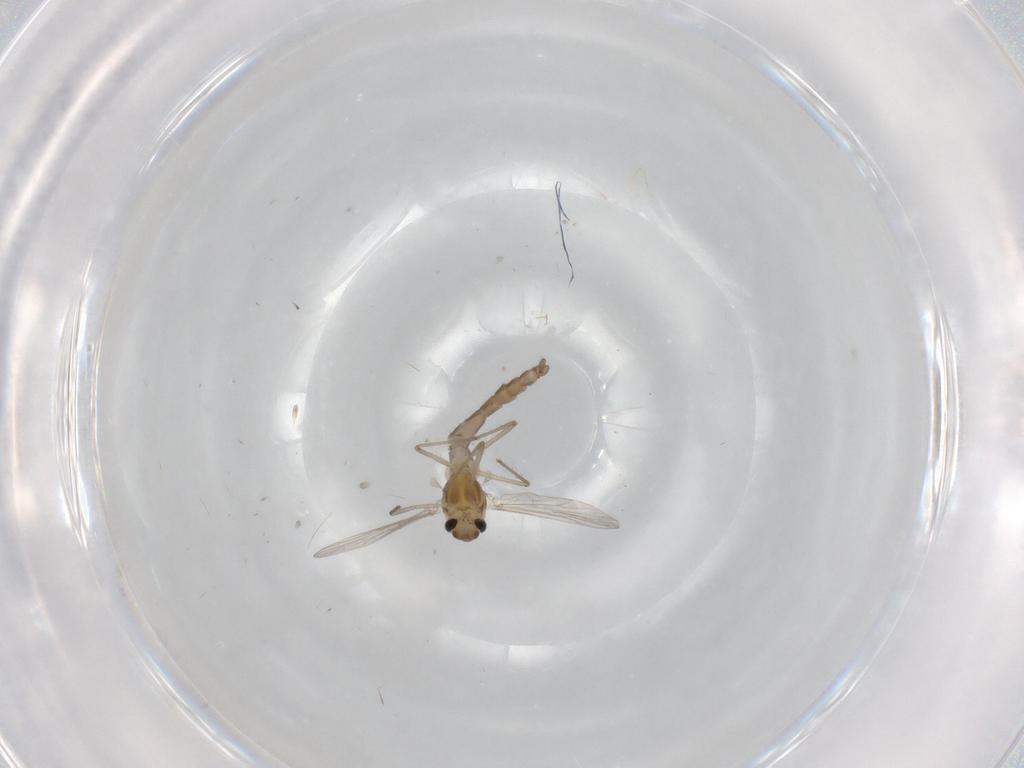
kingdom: Animalia
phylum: Arthropoda
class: Insecta
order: Diptera
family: Chironomidae
